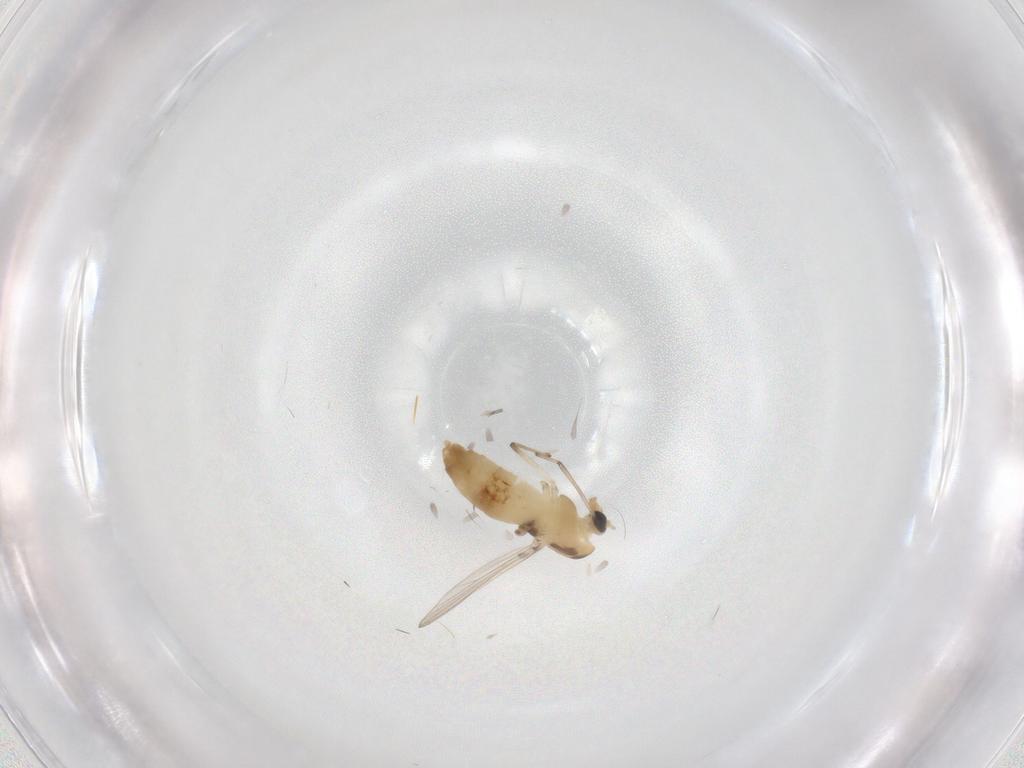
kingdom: Animalia
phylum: Arthropoda
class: Insecta
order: Diptera
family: Chironomidae
